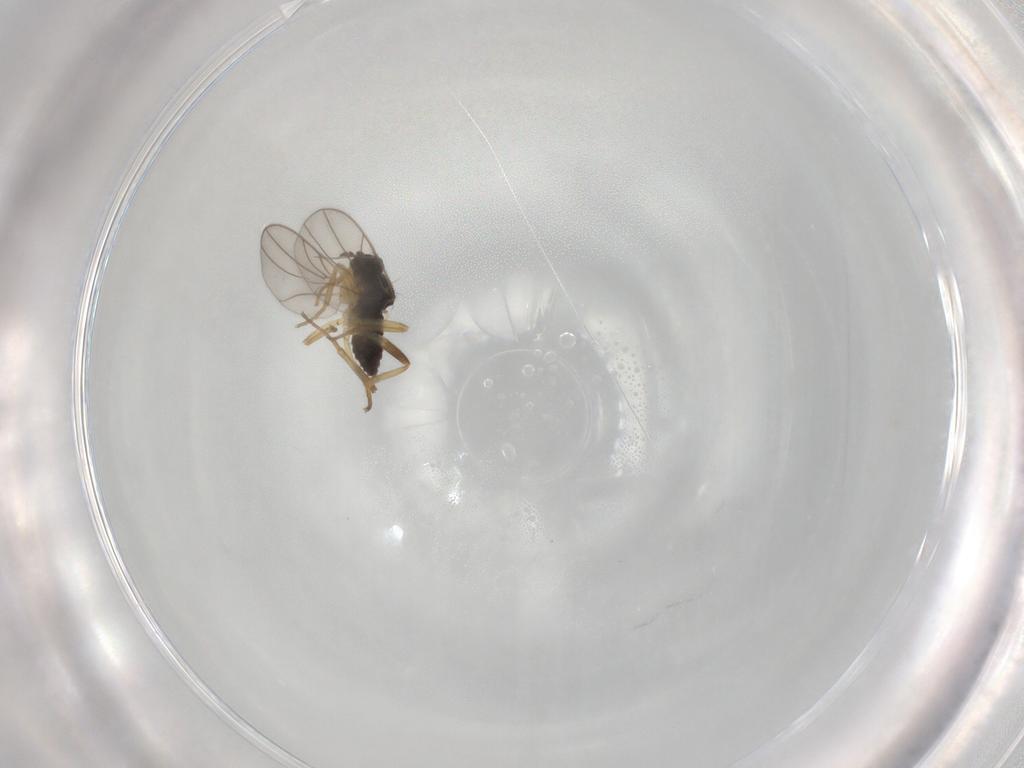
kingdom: Animalia
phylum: Arthropoda
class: Insecta
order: Diptera
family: Hybotidae
